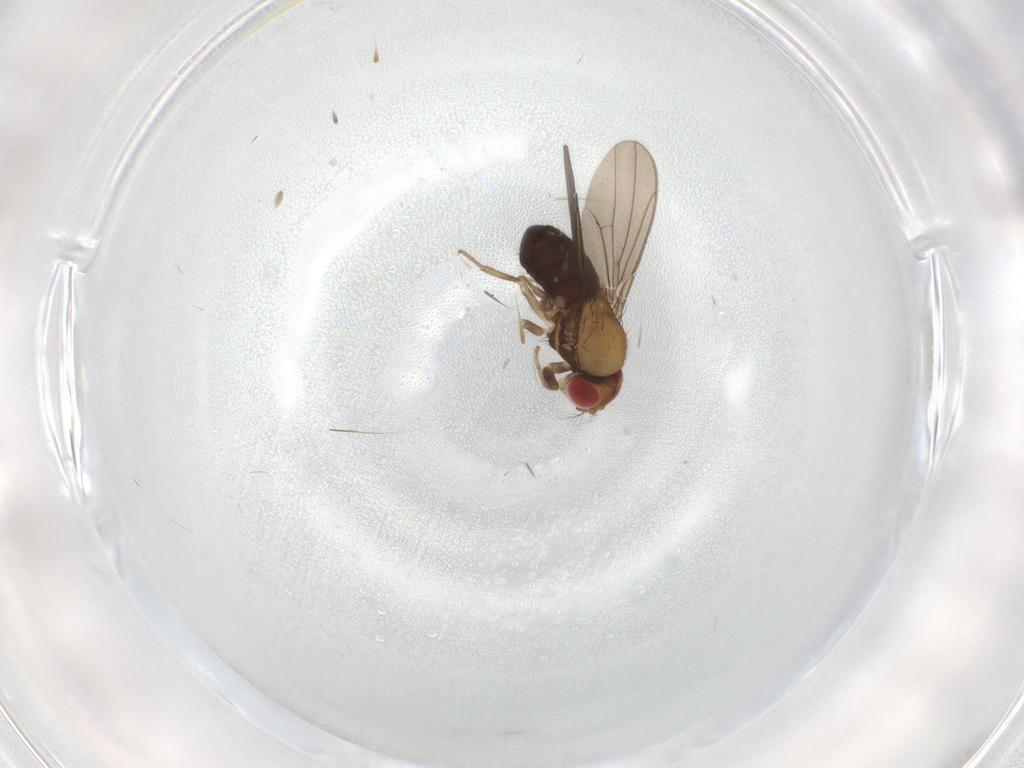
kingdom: Animalia
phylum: Arthropoda
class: Insecta
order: Diptera
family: Drosophilidae
